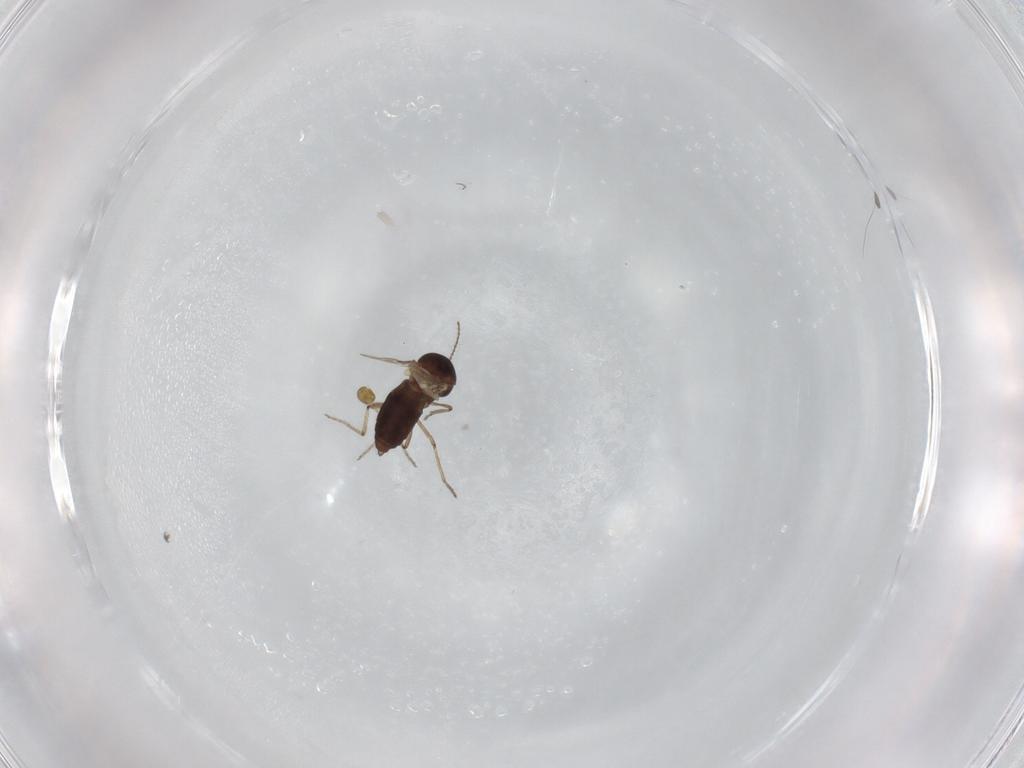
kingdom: Animalia
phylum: Arthropoda
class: Insecta
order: Diptera
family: Ceratopogonidae
